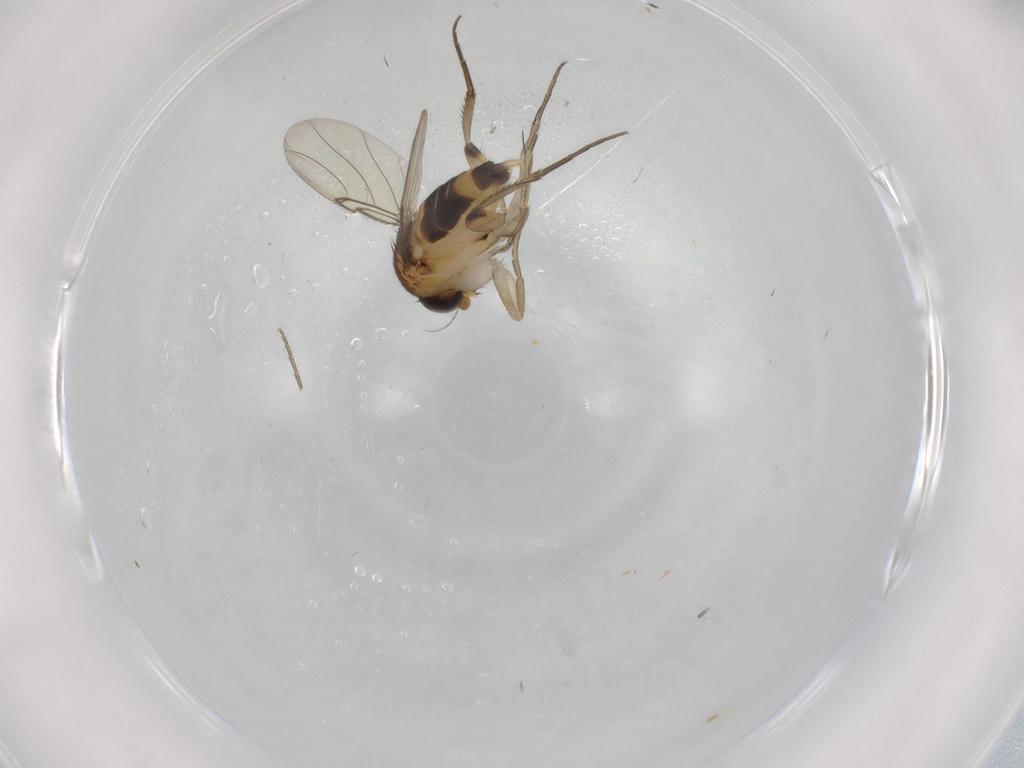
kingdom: Animalia
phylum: Arthropoda
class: Insecta
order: Diptera
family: Phoridae
